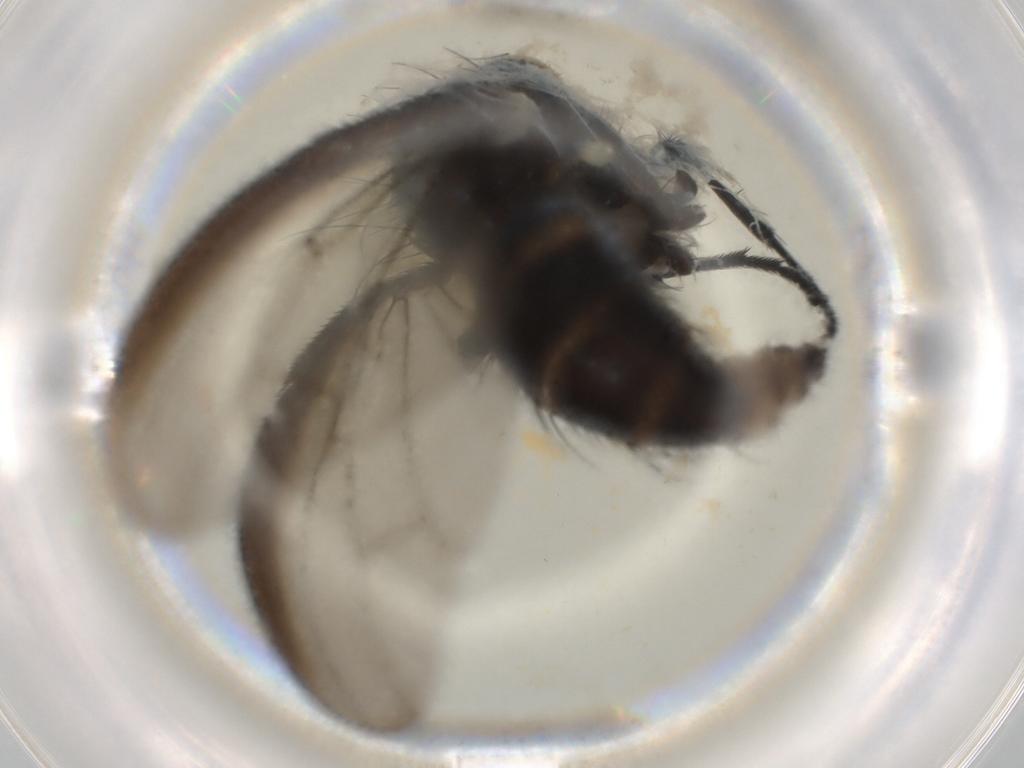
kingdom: Animalia
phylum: Arthropoda
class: Insecta
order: Diptera
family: Anthomyiidae
